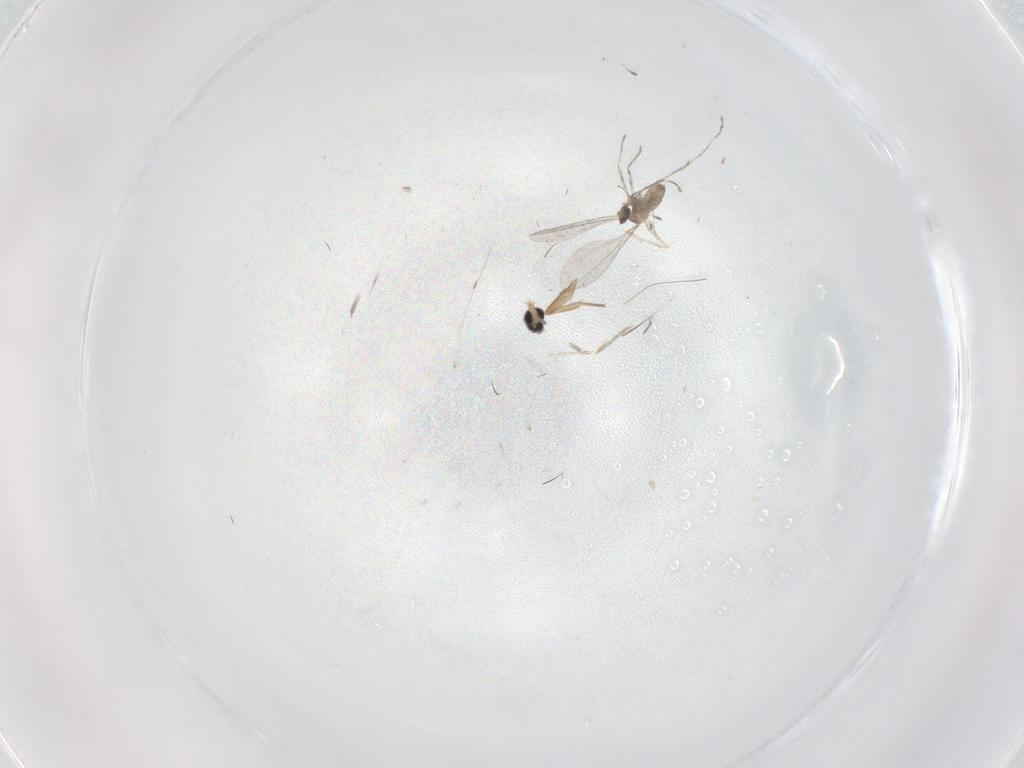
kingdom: Animalia
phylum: Arthropoda
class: Insecta
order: Diptera
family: Cecidomyiidae
